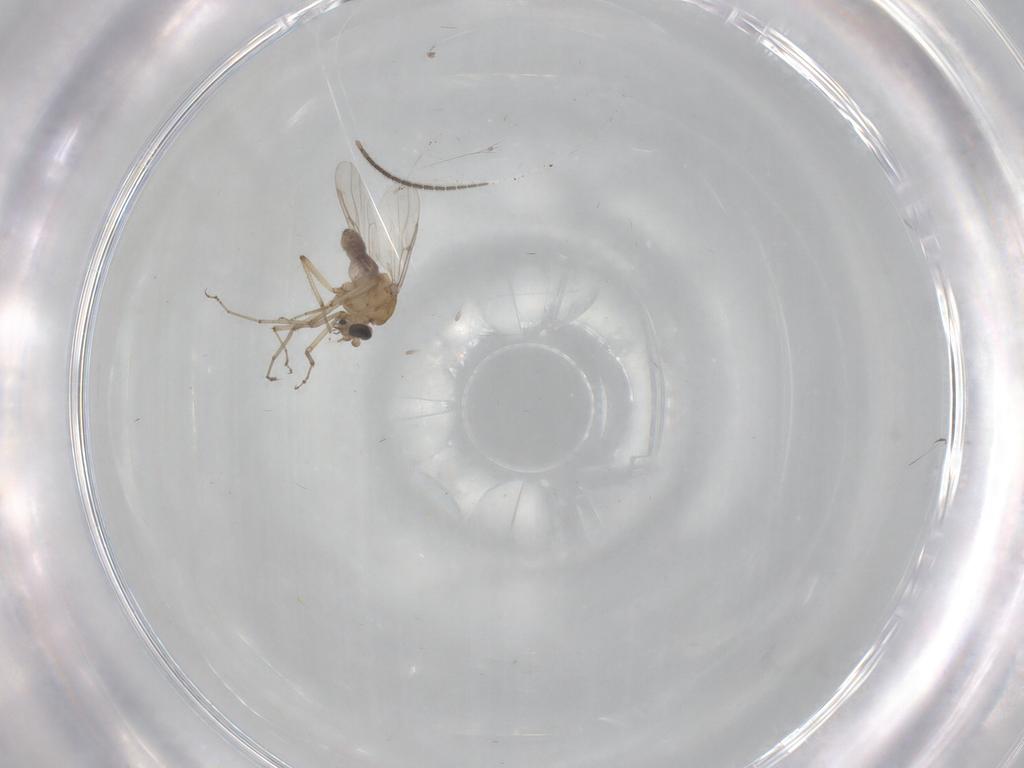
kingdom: Animalia
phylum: Arthropoda
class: Insecta
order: Diptera
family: Sciaridae
